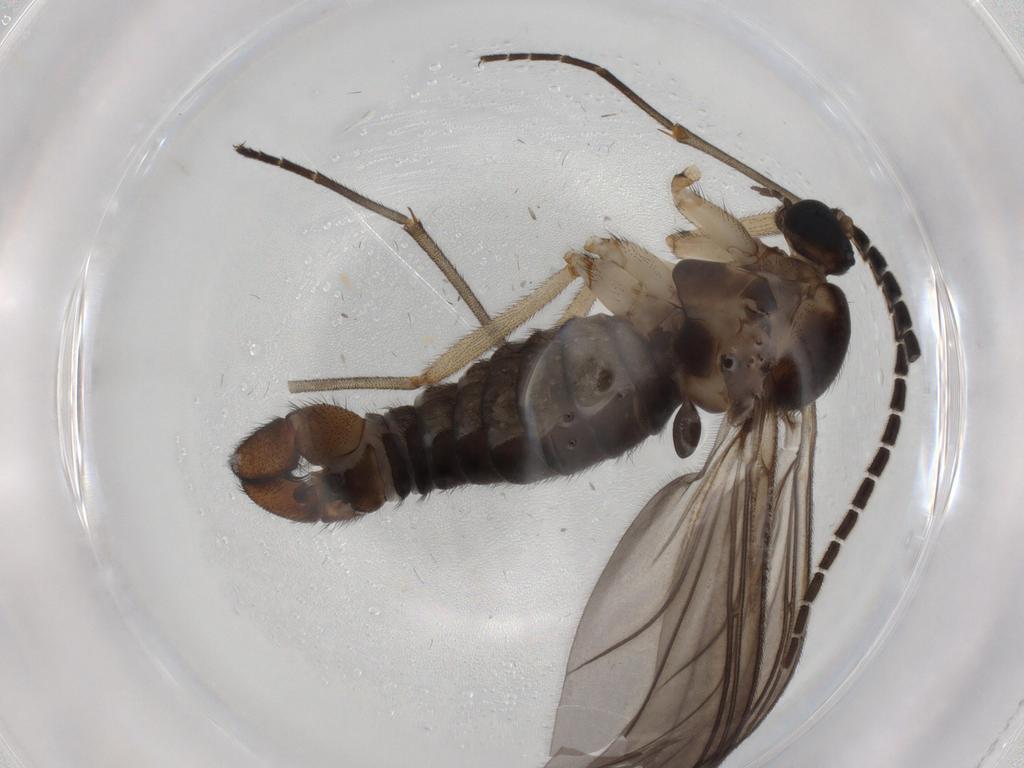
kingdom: Animalia
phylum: Arthropoda
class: Insecta
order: Diptera
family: Sciaridae
